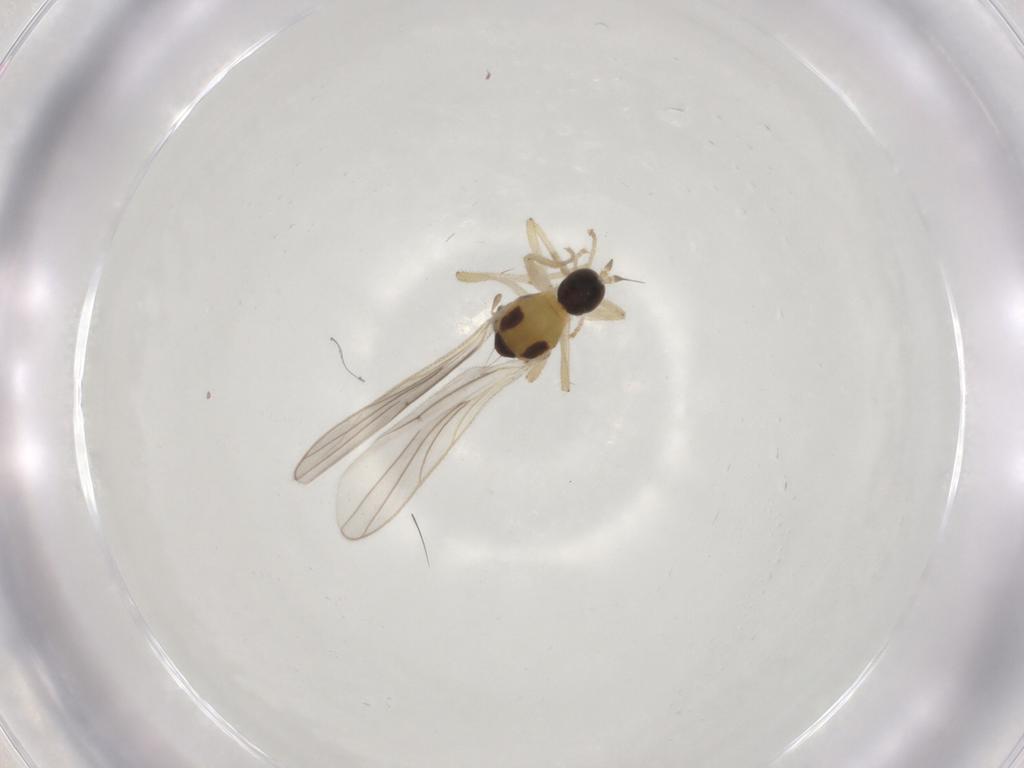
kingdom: Animalia
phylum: Arthropoda
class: Insecta
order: Diptera
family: Hybotidae
